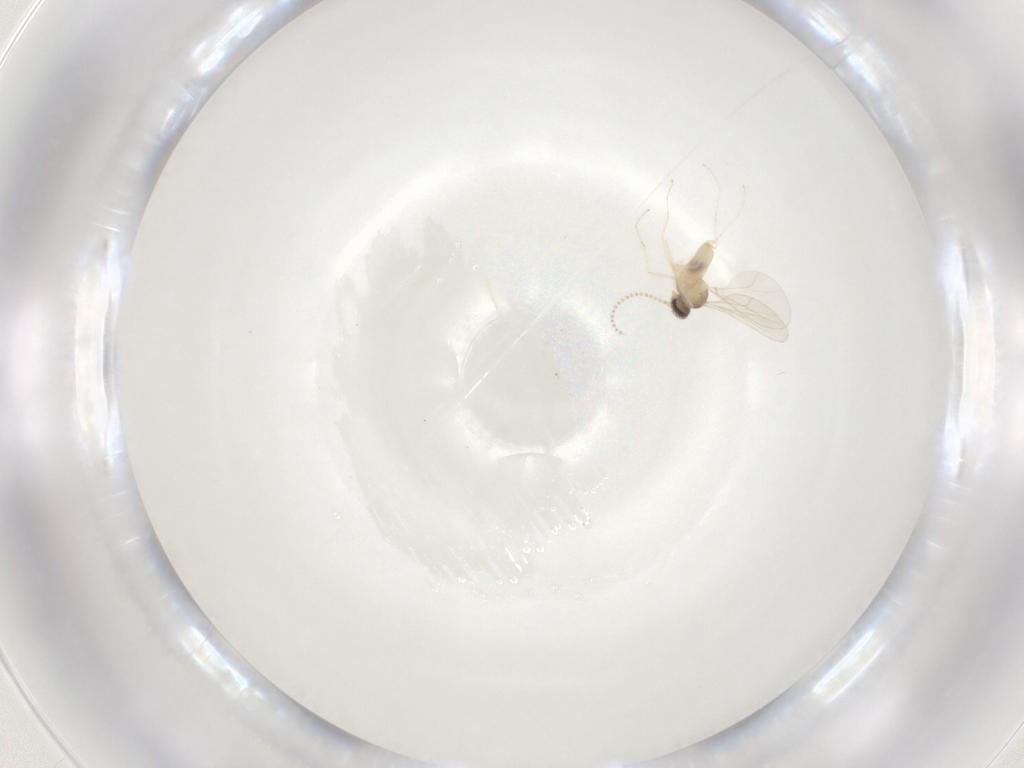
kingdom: Animalia
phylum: Arthropoda
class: Insecta
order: Diptera
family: Cecidomyiidae
